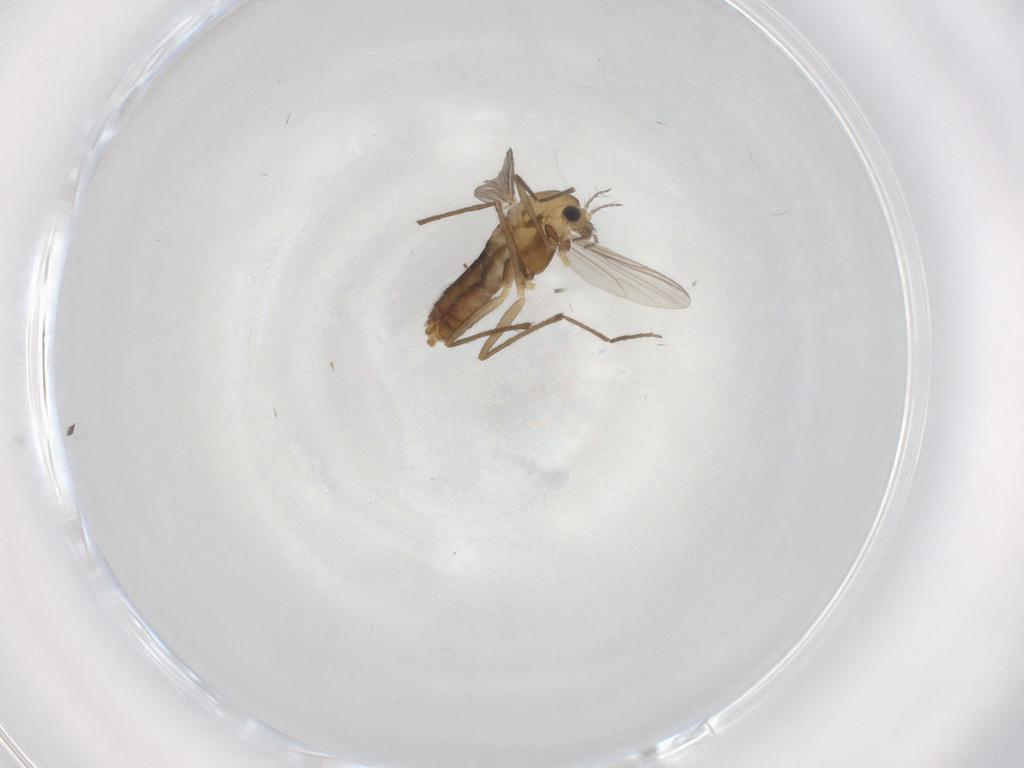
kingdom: Animalia
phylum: Arthropoda
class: Insecta
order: Diptera
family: Chironomidae
